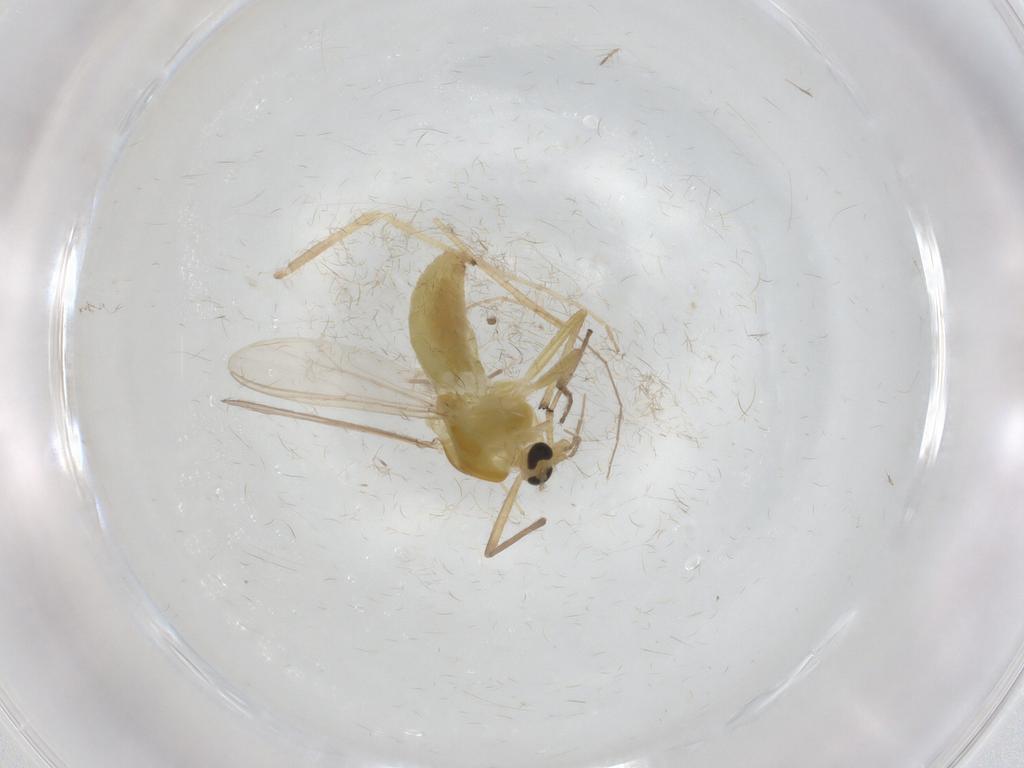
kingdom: Animalia
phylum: Arthropoda
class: Insecta
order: Diptera
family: Chironomidae
